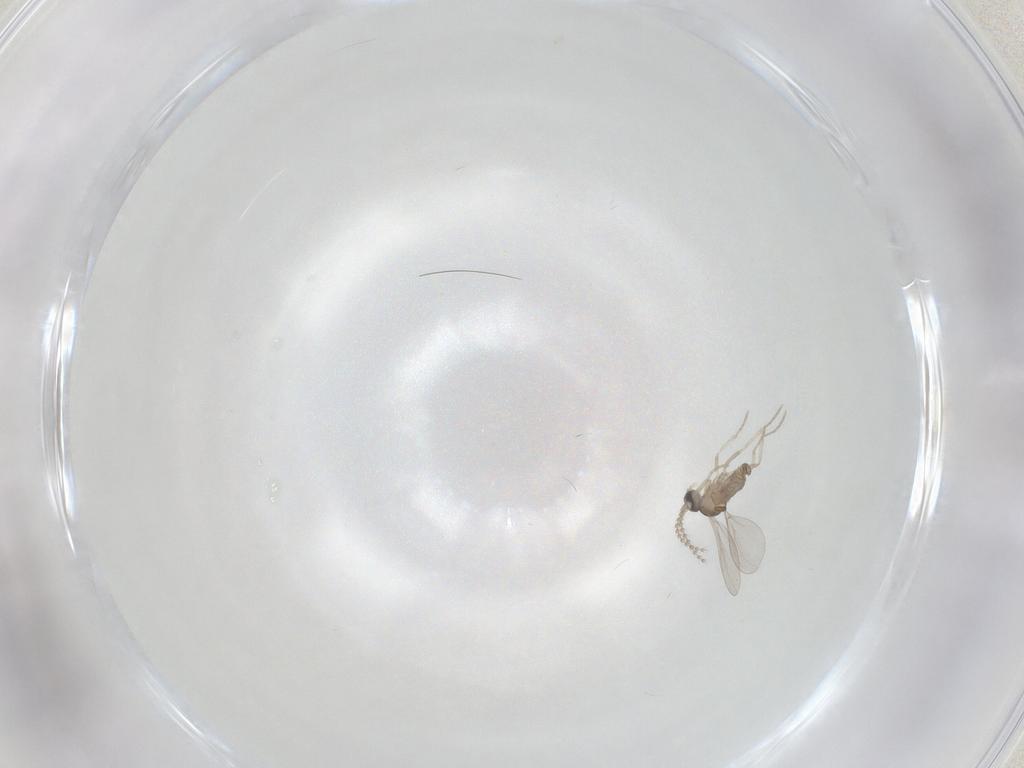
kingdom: Animalia
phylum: Arthropoda
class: Insecta
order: Diptera
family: Cecidomyiidae
